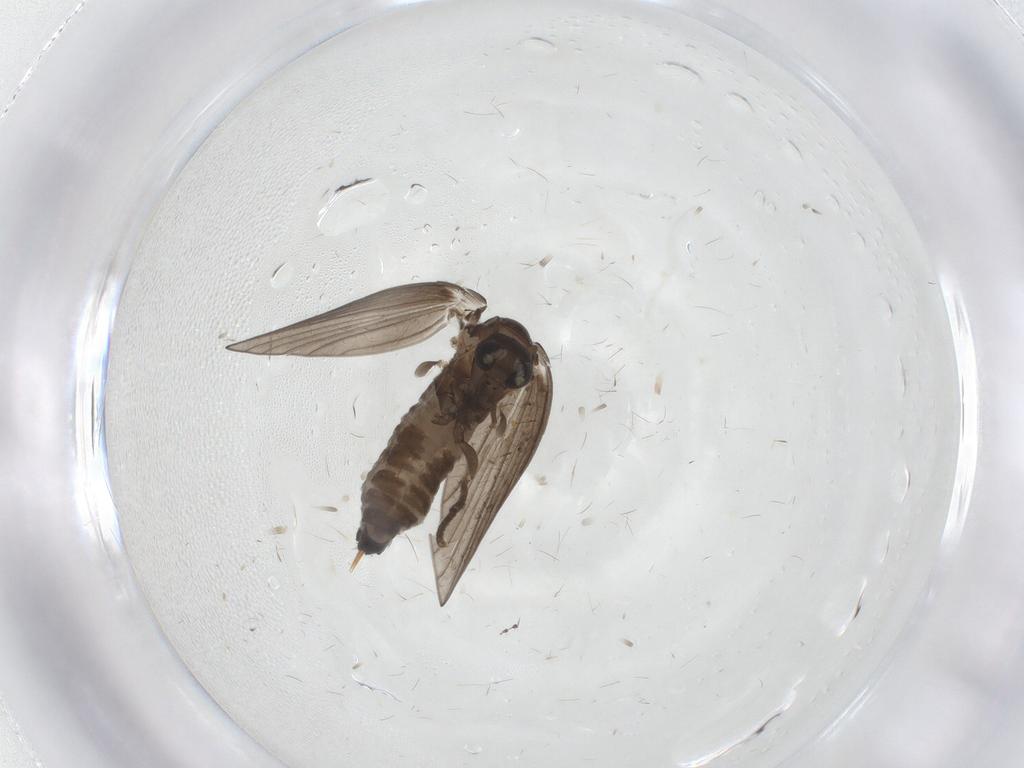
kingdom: Animalia
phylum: Arthropoda
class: Insecta
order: Diptera
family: Psychodidae
